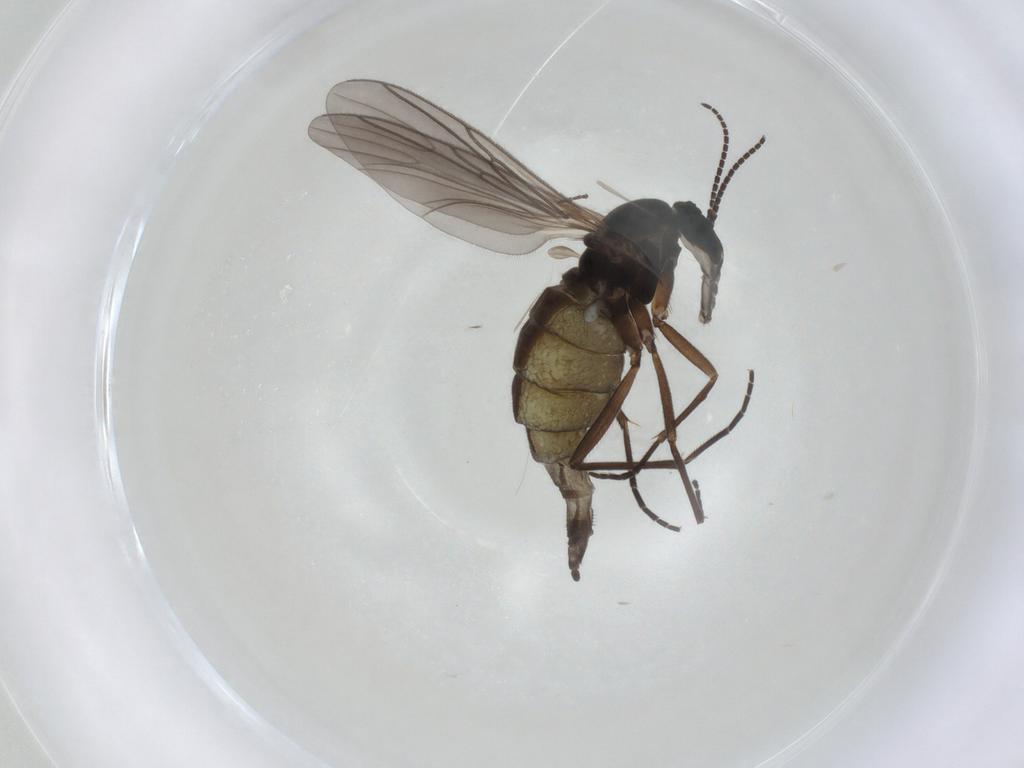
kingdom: Animalia
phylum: Arthropoda
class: Insecta
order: Diptera
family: Sciaridae
